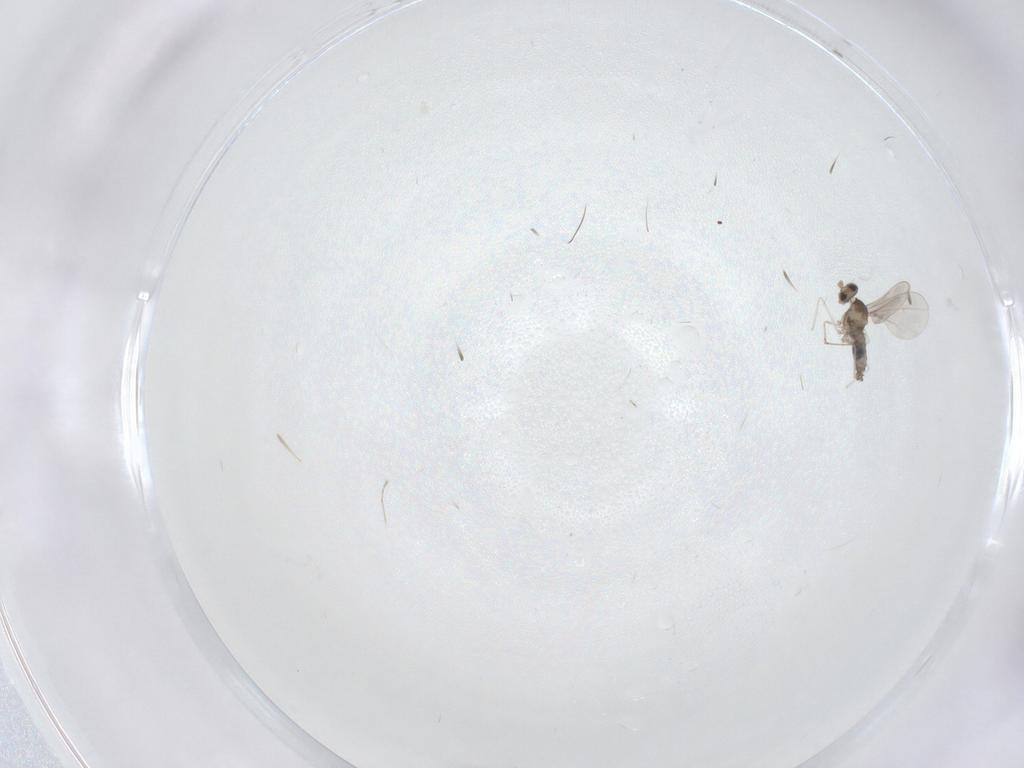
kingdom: Animalia
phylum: Arthropoda
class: Insecta
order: Diptera
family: Cecidomyiidae
